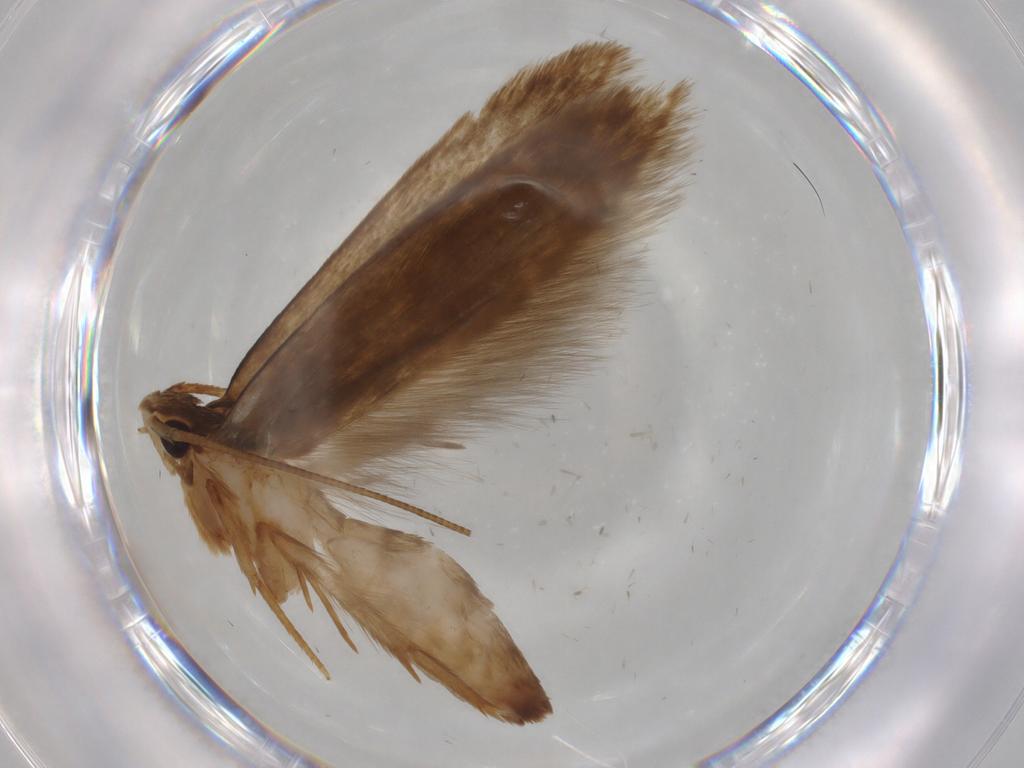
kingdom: Animalia
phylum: Arthropoda
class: Insecta
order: Lepidoptera
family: Tineidae
